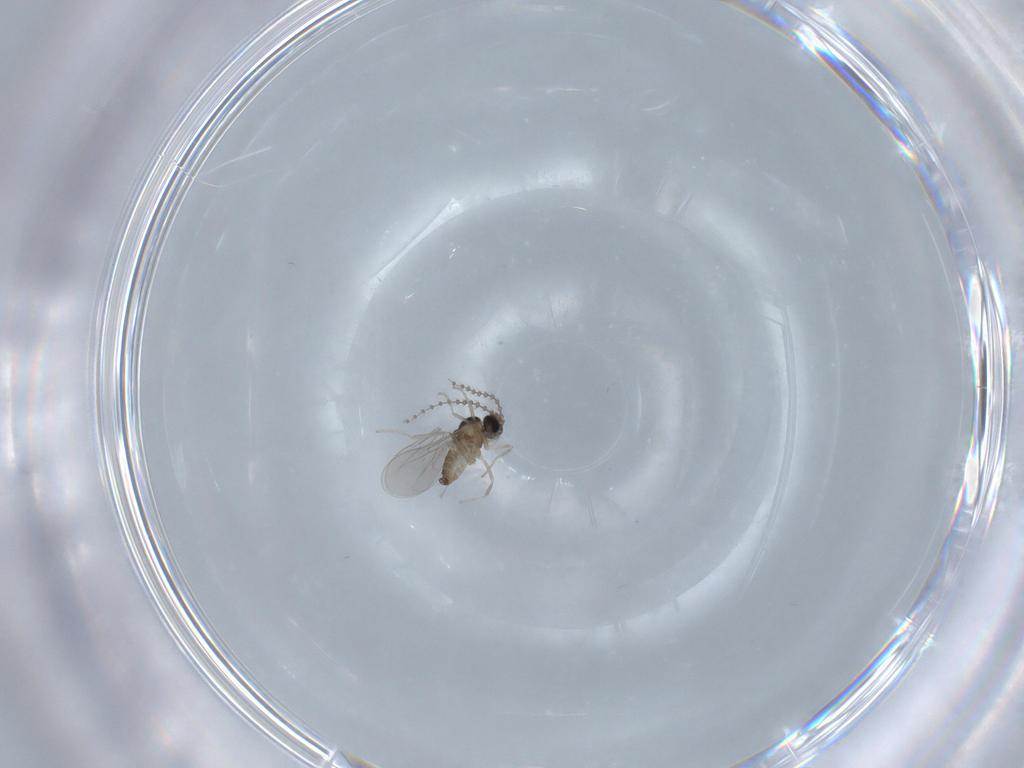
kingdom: Animalia
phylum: Arthropoda
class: Insecta
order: Diptera
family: Cecidomyiidae
